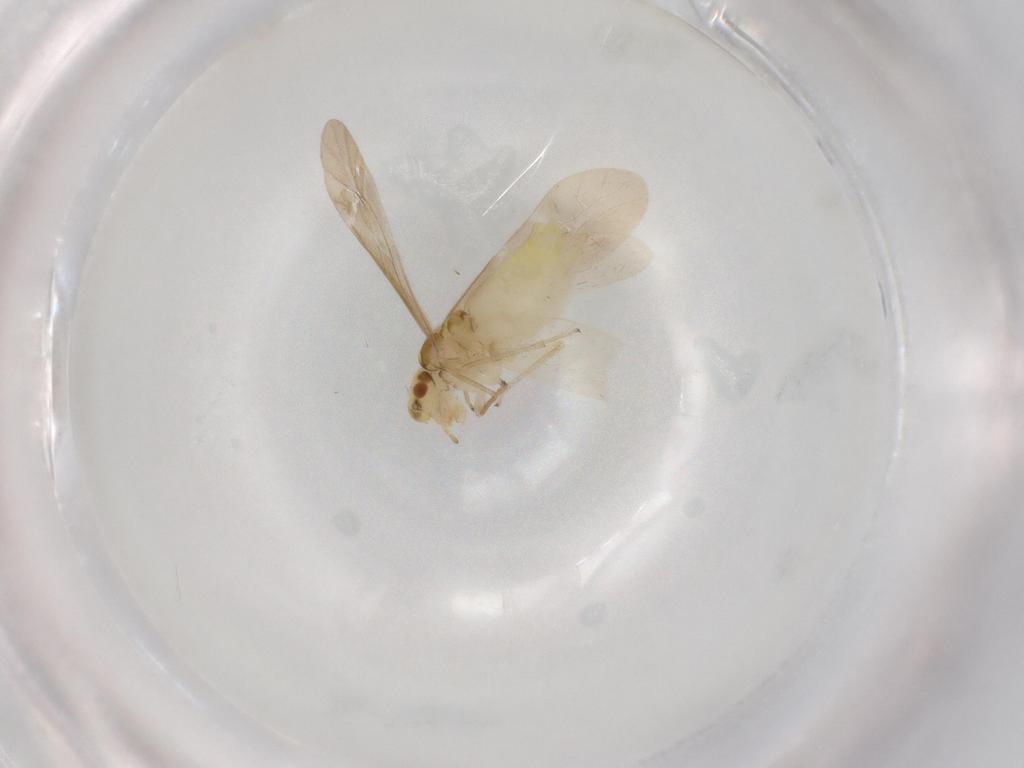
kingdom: Animalia
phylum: Arthropoda
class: Insecta
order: Psocodea
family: Caeciliusidae
